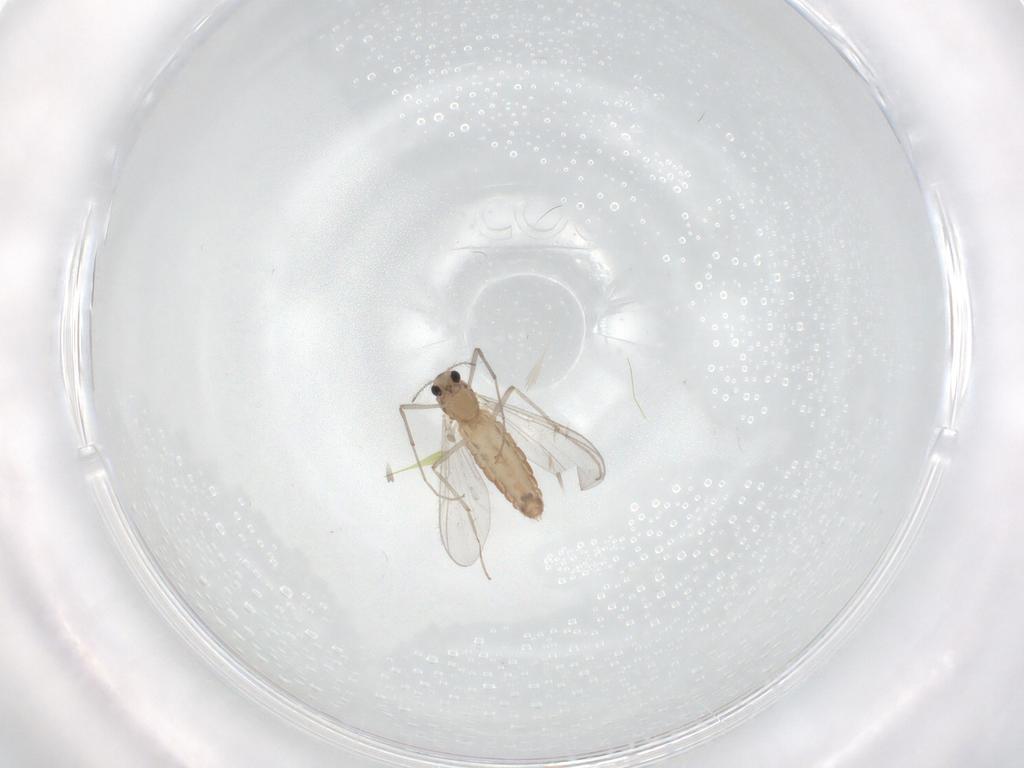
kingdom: Animalia
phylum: Arthropoda
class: Insecta
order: Diptera
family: Chironomidae
